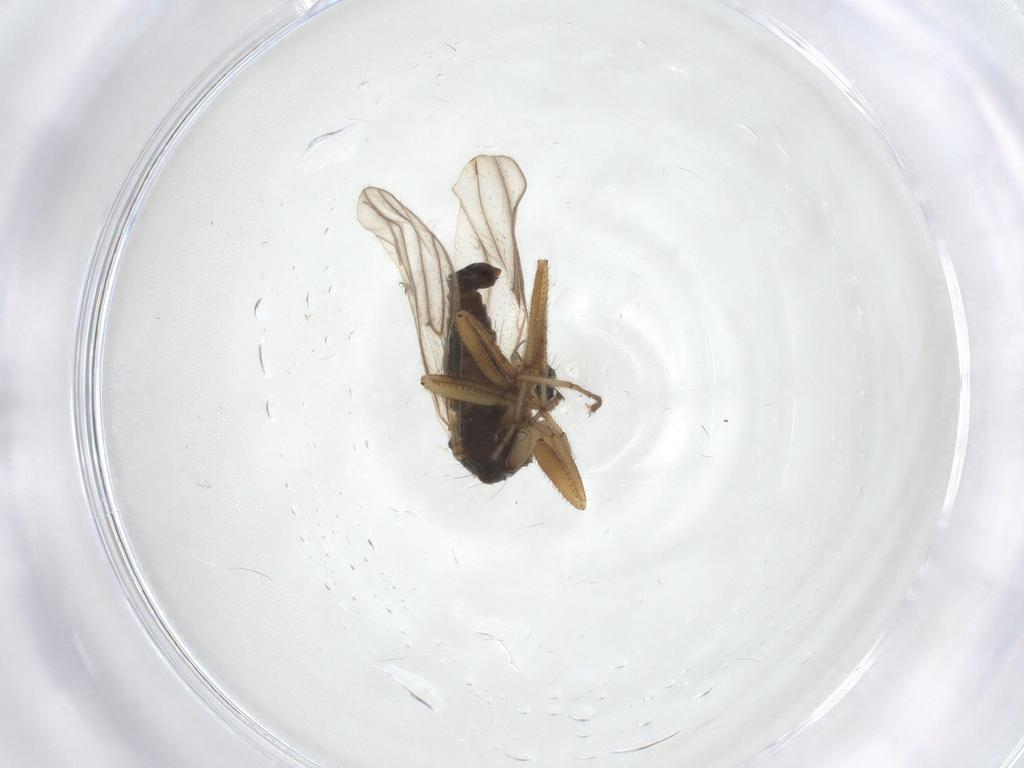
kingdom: Animalia
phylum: Arthropoda
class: Insecta
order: Diptera
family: Hybotidae
